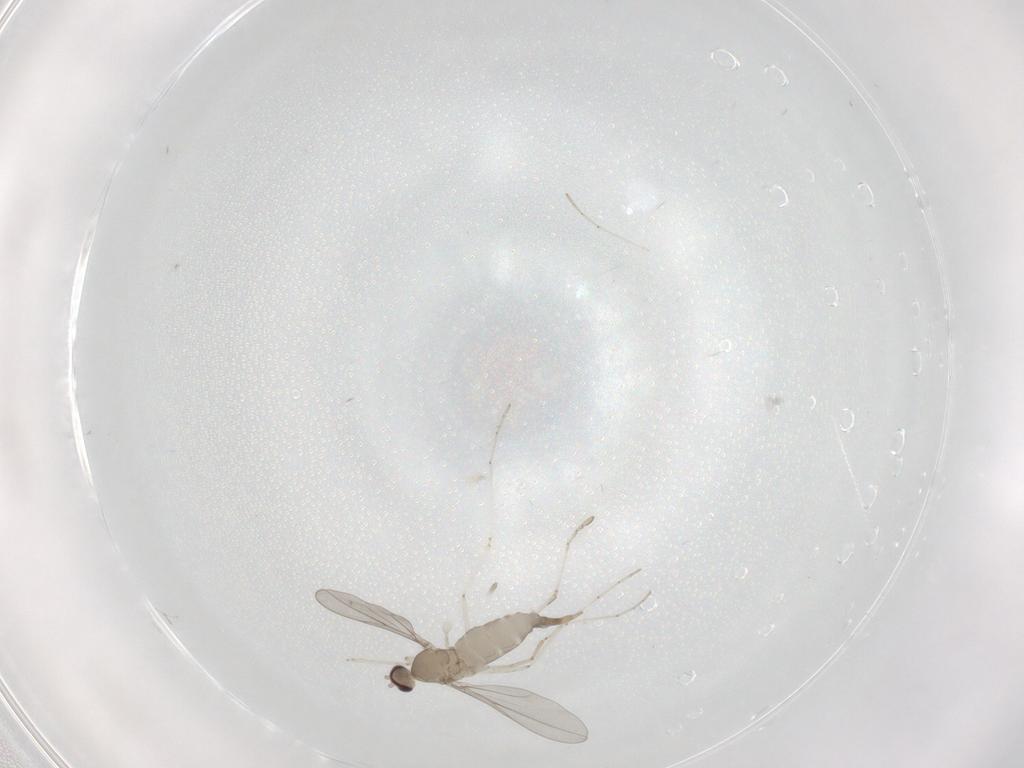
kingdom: Animalia
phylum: Arthropoda
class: Insecta
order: Diptera
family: Cecidomyiidae
